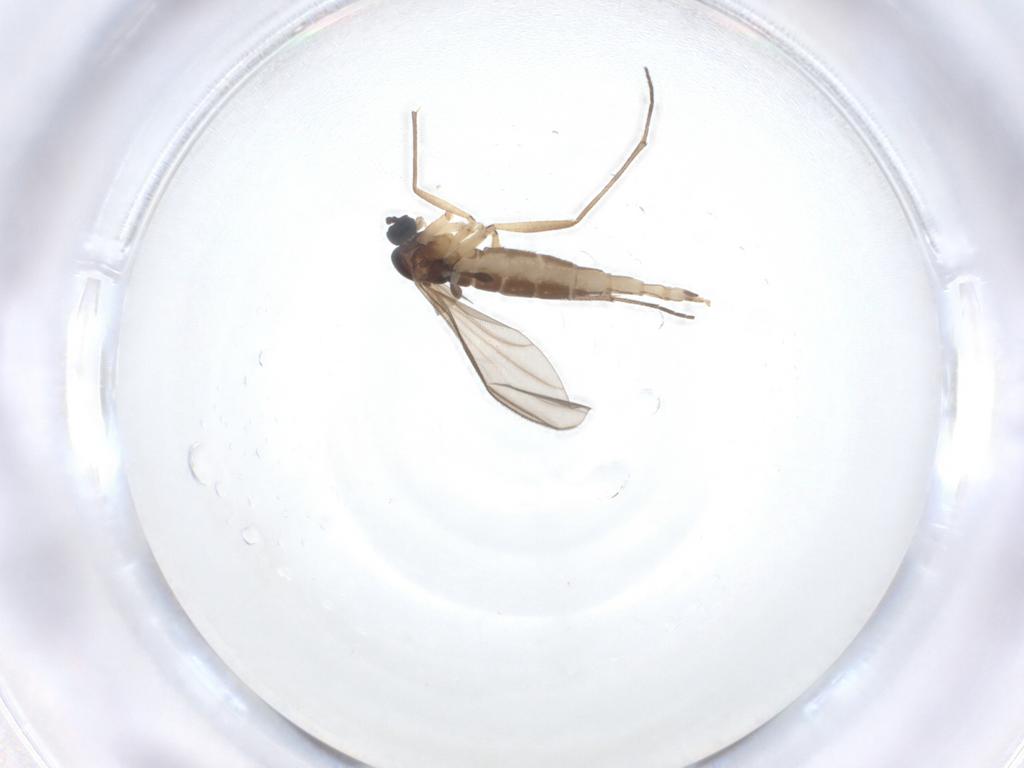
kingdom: Animalia
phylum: Arthropoda
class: Insecta
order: Diptera
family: Sciaridae
